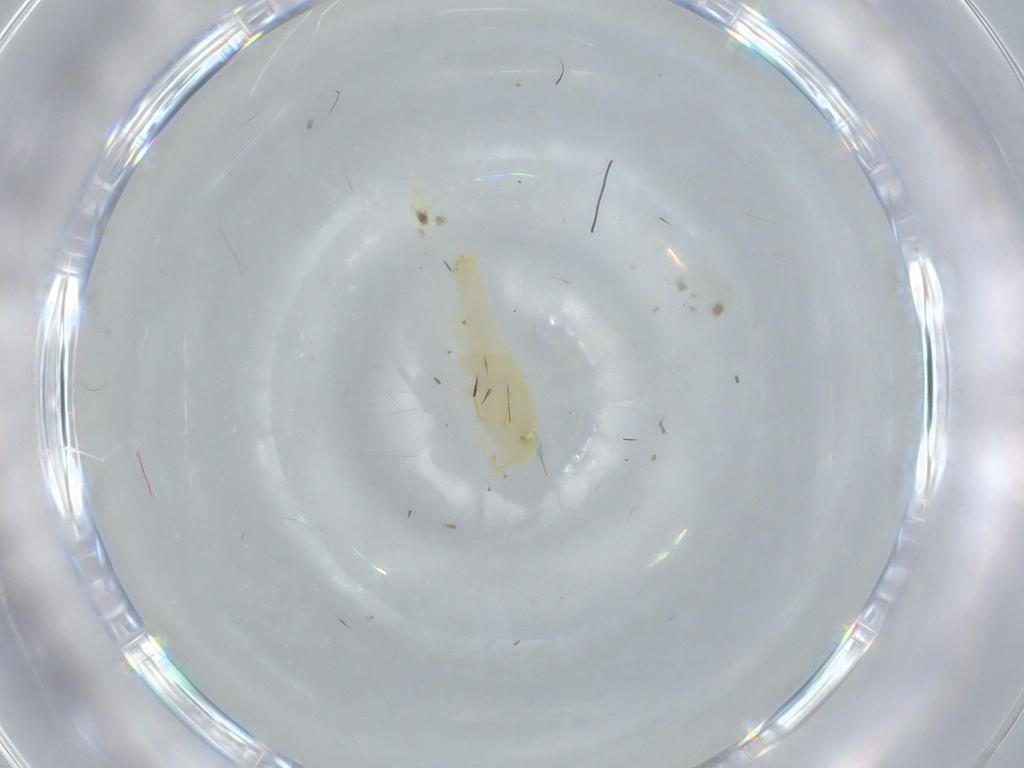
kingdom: Animalia
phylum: Arthropoda
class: Insecta
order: Hemiptera
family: Cicadellidae
